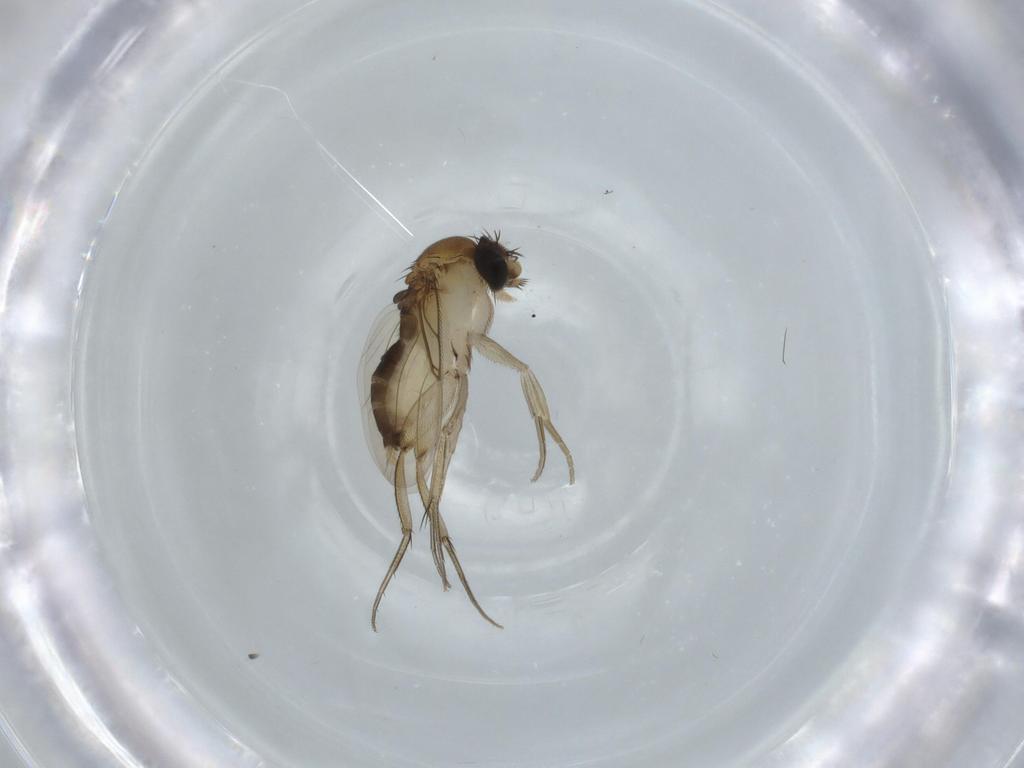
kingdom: Animalia
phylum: Arthropoda
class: Insecta
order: Diptera
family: Phoridae
